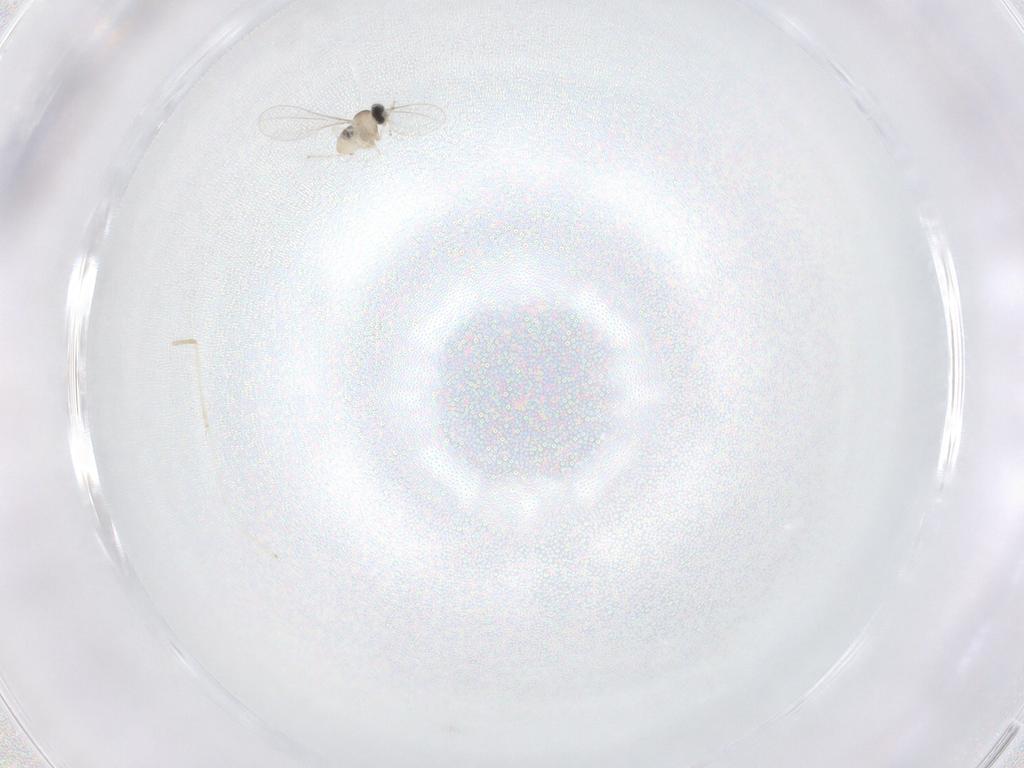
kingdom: Animalia
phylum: Arthropoda
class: Insecta
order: Diptera
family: Cecidomyiidae
